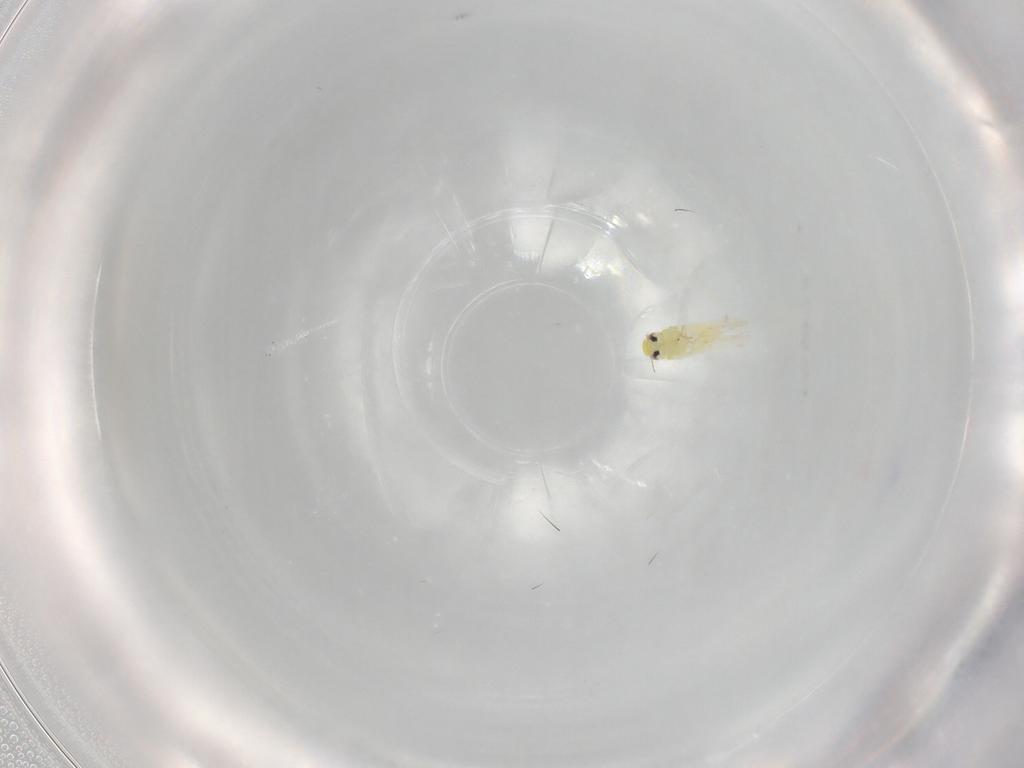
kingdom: Animalia
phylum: Arthropoda
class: Insecta
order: Hemiptera
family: Cicadellidae
